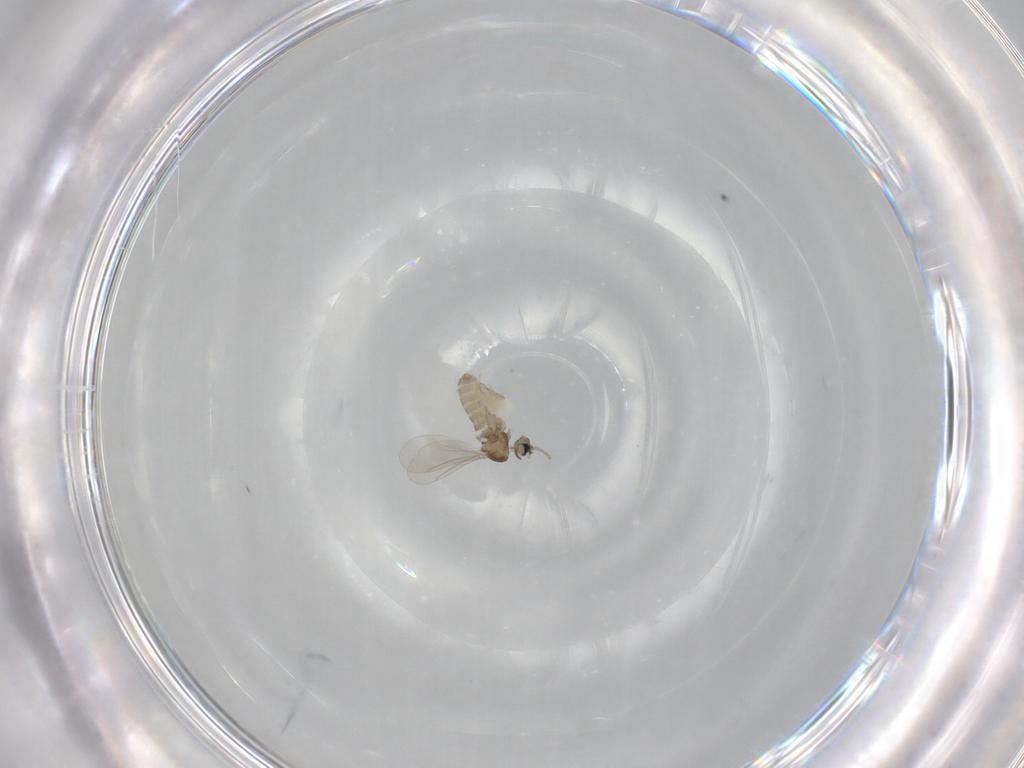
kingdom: Animalia
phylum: Arthropoda
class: Insecta
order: Diptera
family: Cecidomyiidae
